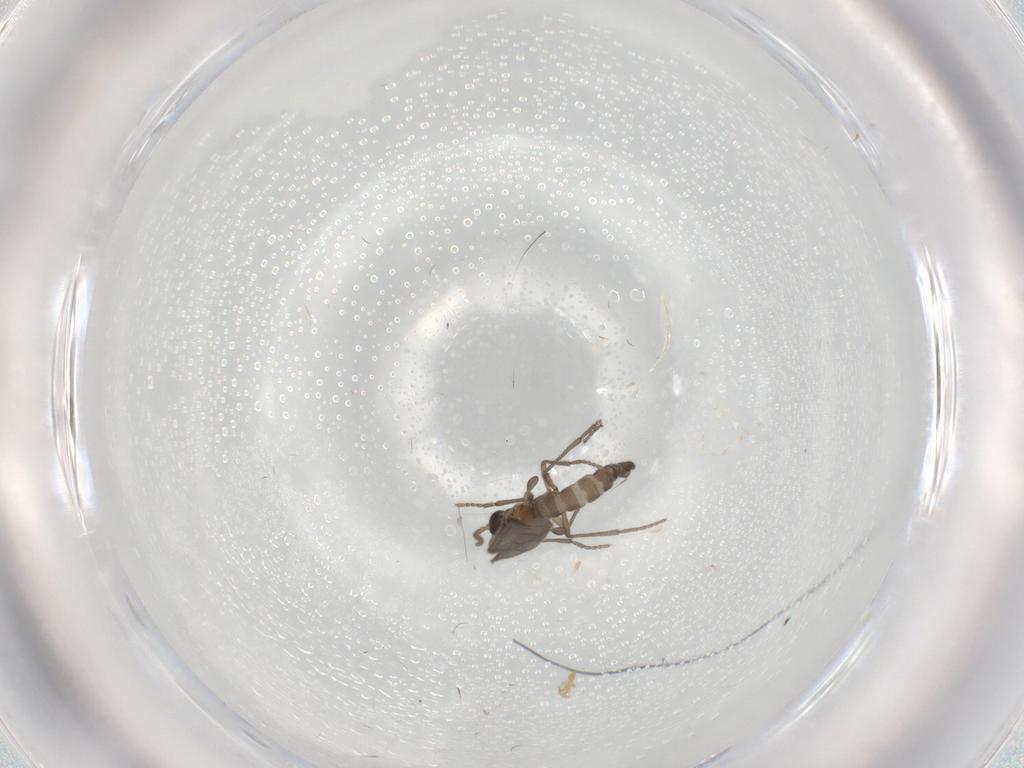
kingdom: Animalia
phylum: Arthropoda
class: Insecta
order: Diptera
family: Sciaridae
